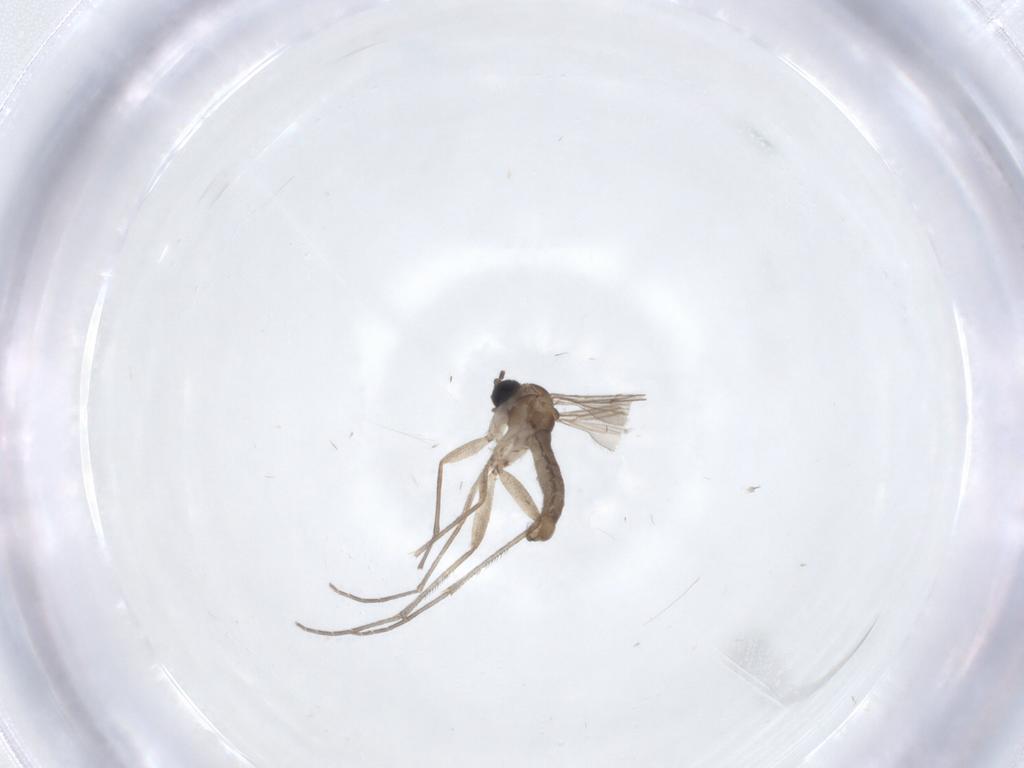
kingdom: Animalia
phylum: Arthropoda
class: Insecta
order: Diptera
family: Sciaridae
